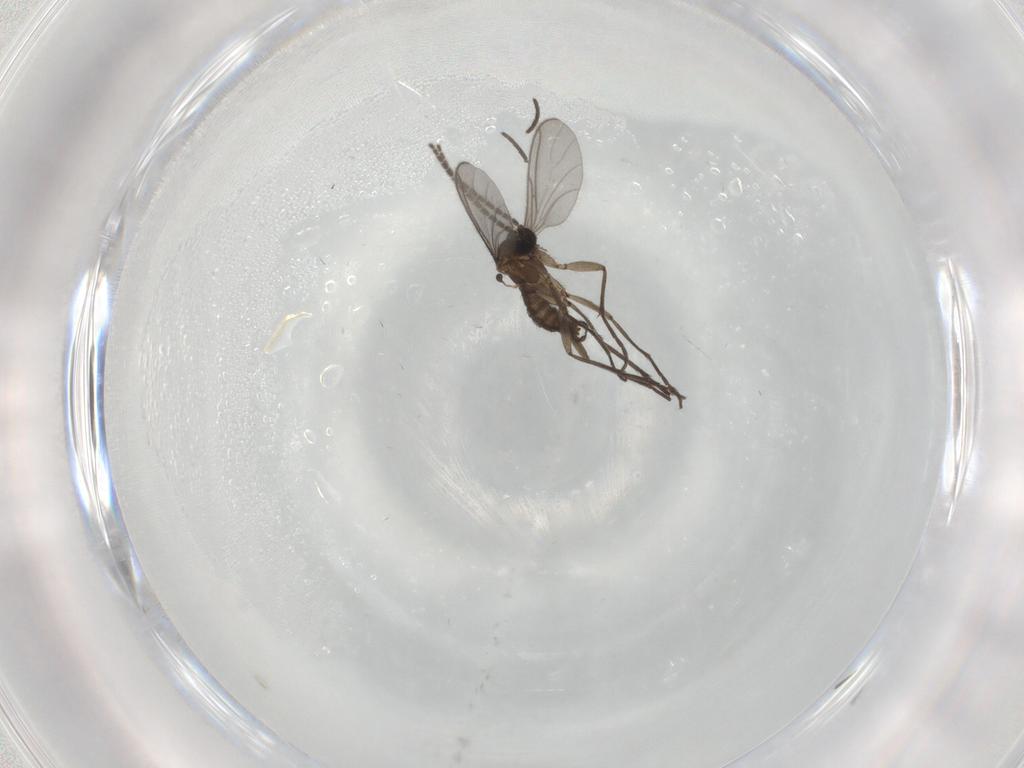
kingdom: Animalia
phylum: Arthropoda
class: Insecta
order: Diptera
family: Sciaridae
